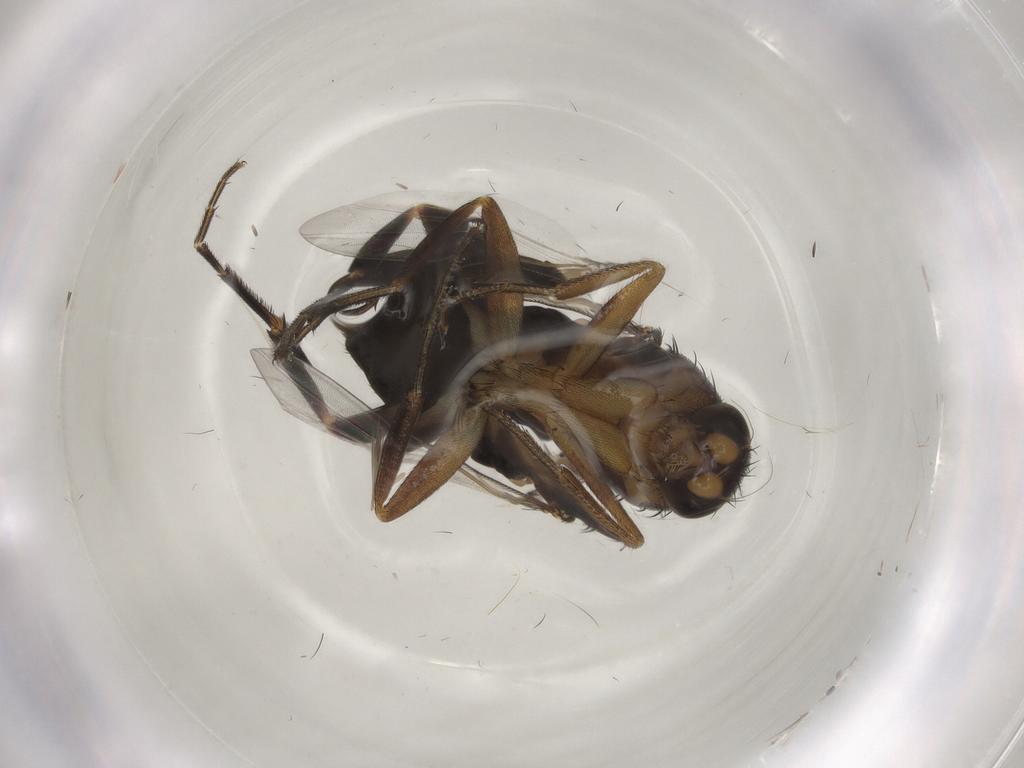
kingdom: Animalia
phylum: Arthropoda
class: Insecta
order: Diptera
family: Phoridae
